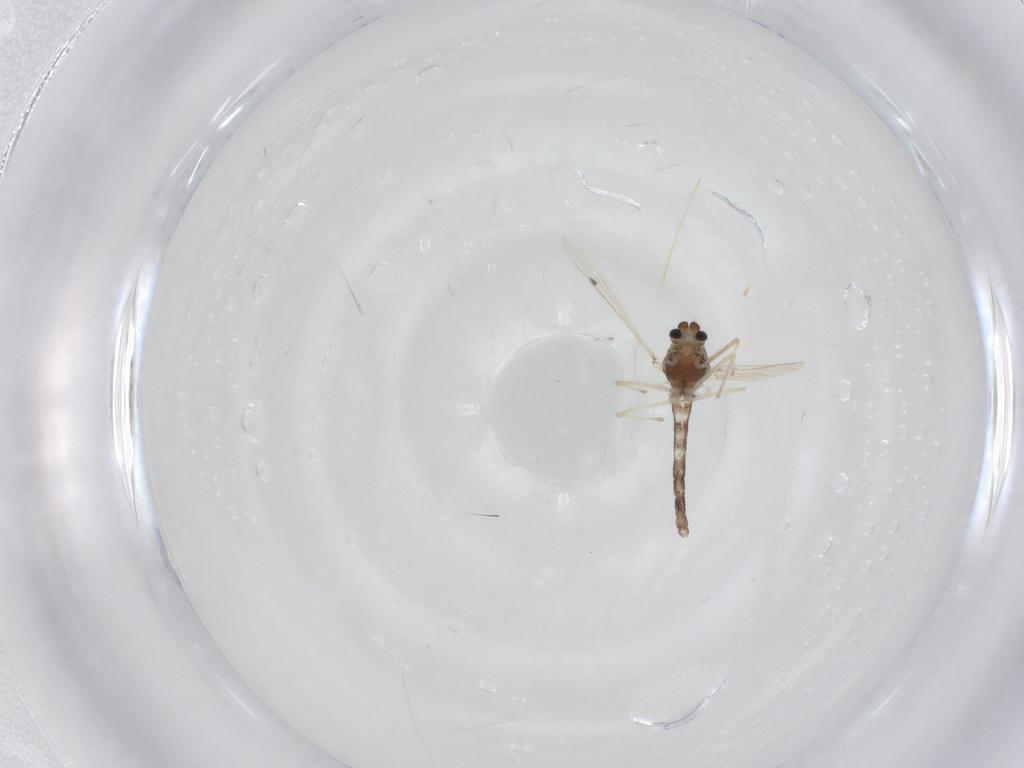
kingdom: Animalia
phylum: Arthropoda
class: Insecta
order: Diptera
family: Chironomidae
